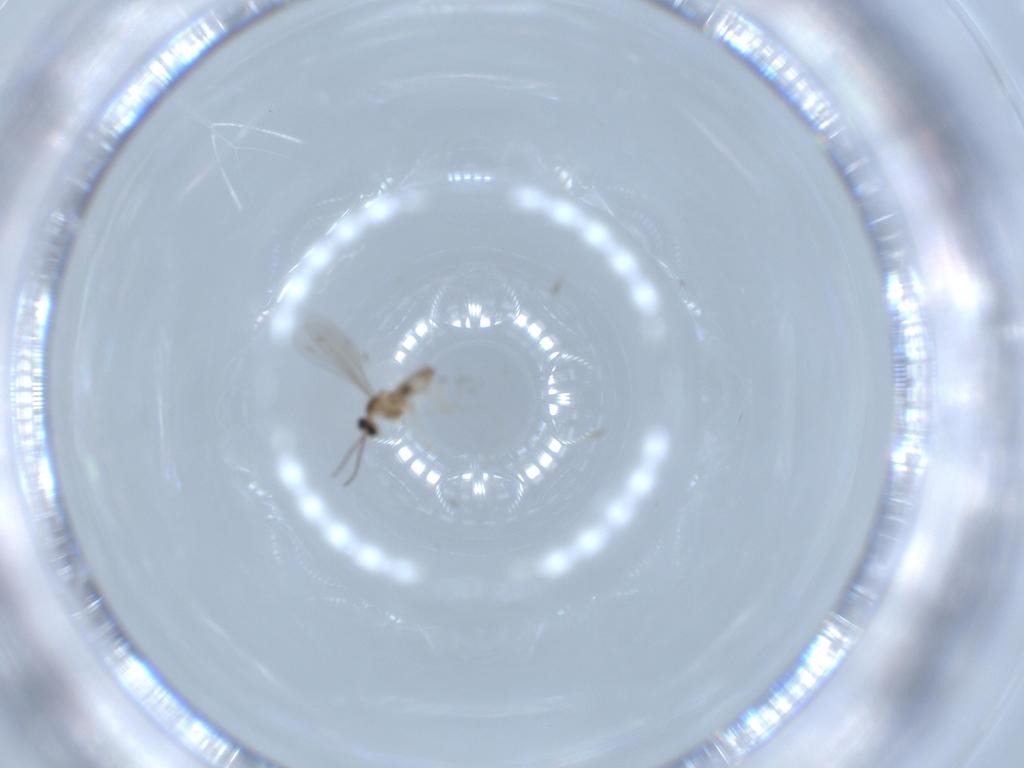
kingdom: Animalia
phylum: Arthropoda
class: Insecta
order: Diptera
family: Cecidomyiidae
